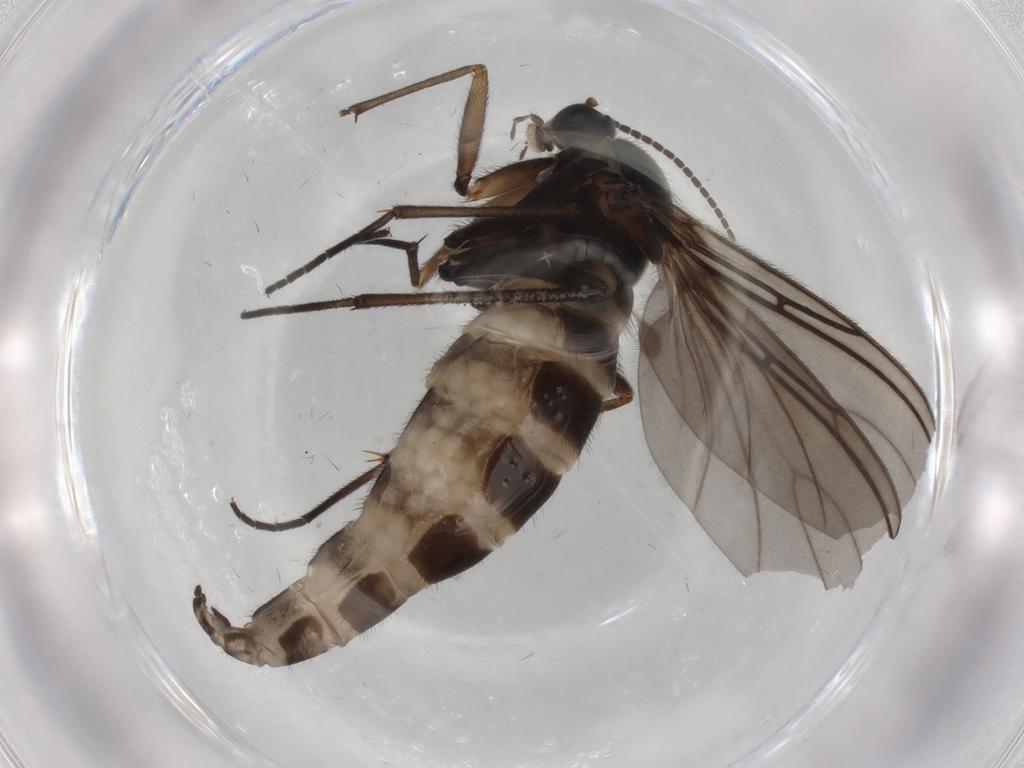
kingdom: Animalia
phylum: Arthropoda
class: Insecta
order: Diptera
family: Sciaridae
